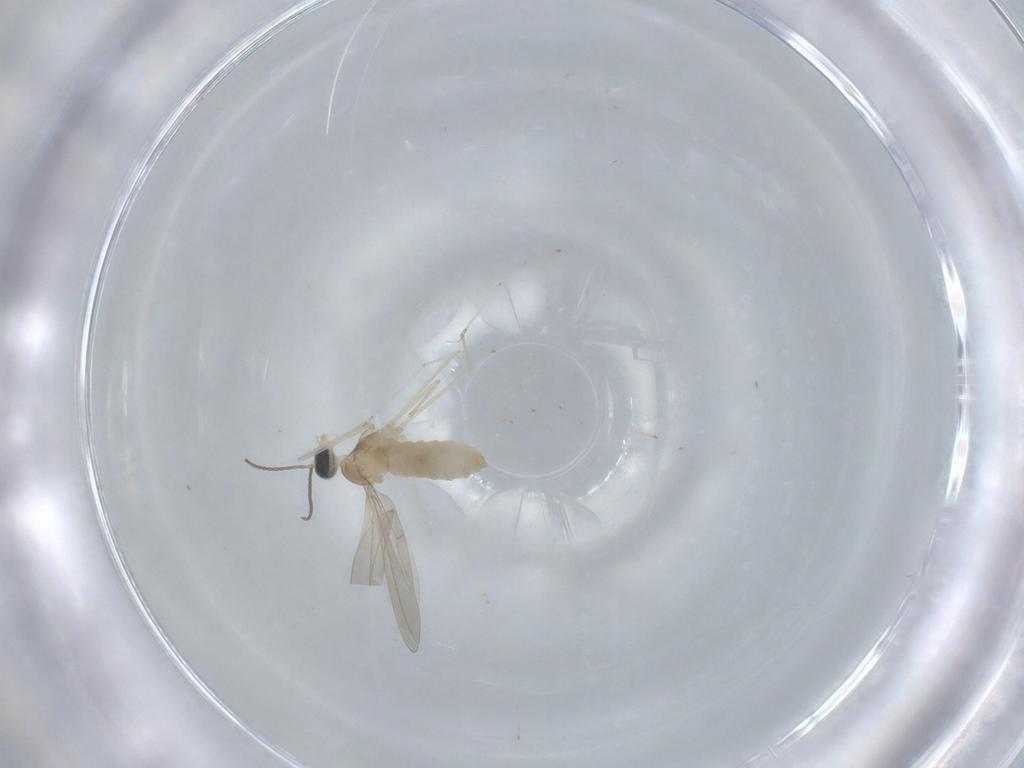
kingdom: Animalia
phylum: Arthropoda
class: Insecta
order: Diptera
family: Cecidomyiidae
